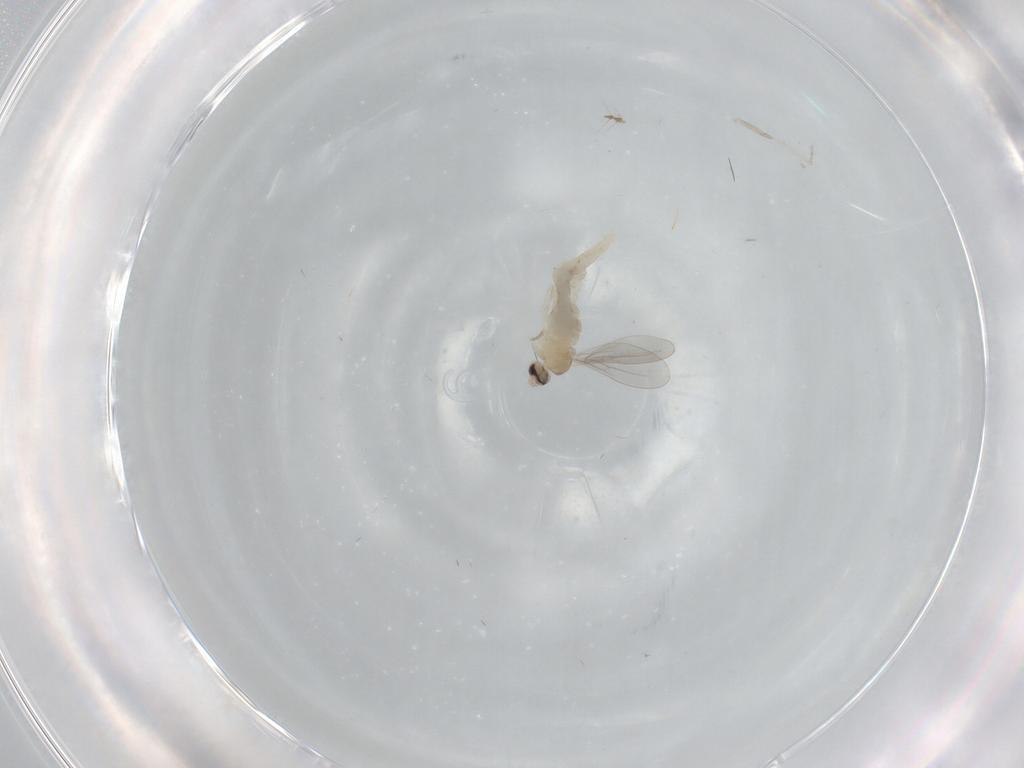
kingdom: Animalia
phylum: Arthropoda
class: Insecta
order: Diptera
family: Cecidomyiidae
